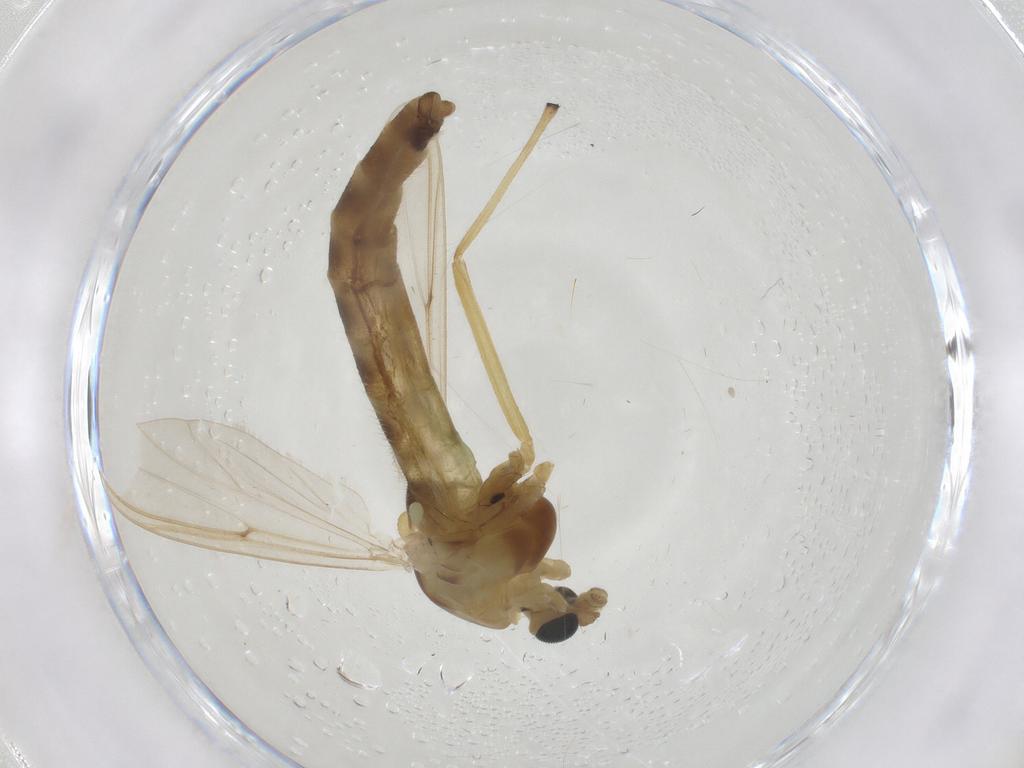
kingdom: Animalia
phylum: Arthropoda
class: Insecta
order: Diptera
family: Chironomidae
